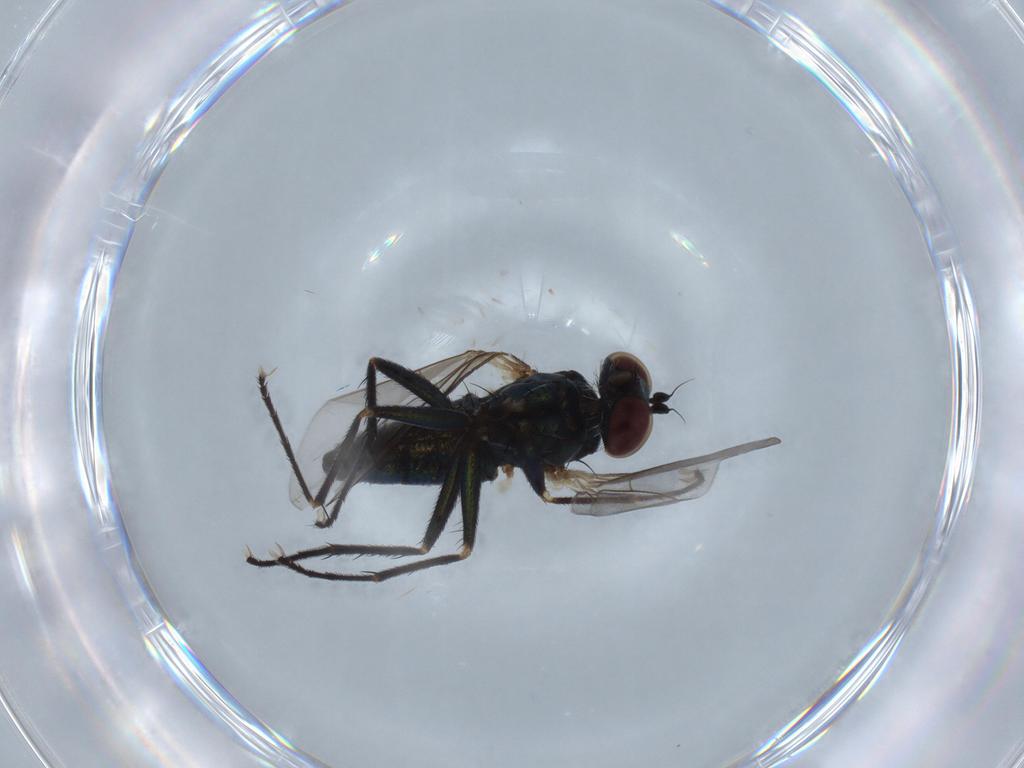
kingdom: Animalia
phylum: Arthropoda
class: Insecta
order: Diptera
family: Dolichopodidae
